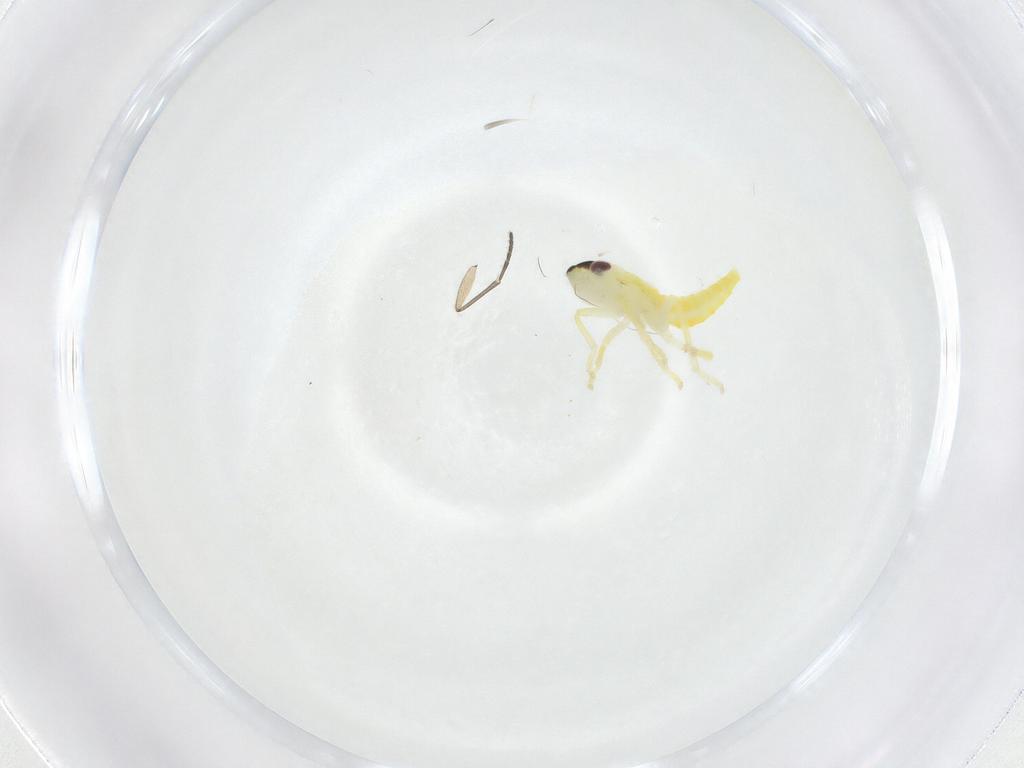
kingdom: Animalia
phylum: Arthropoda
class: Insecta
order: Hemiptera
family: Cicadellidae
